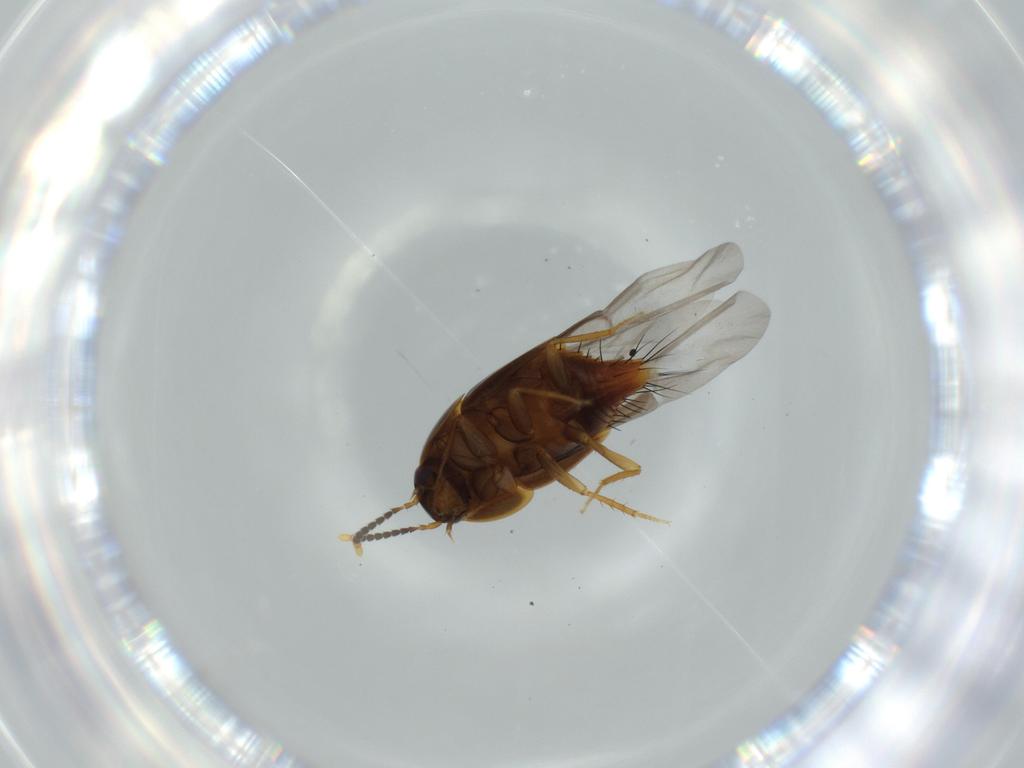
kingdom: Animalia
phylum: Arthropoda
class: Insecta
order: Coleoptera
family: Staphylinidae
